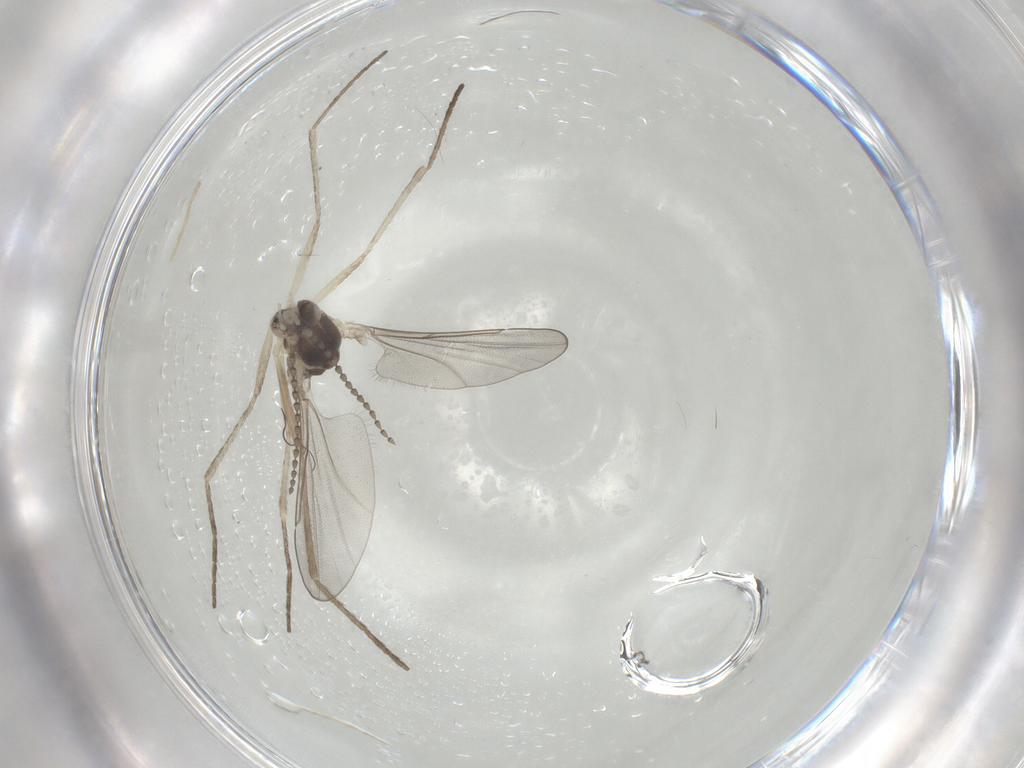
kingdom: Animalia
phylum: Arthropoda
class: Insecta
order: Diptera
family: Cecidomyiidae
